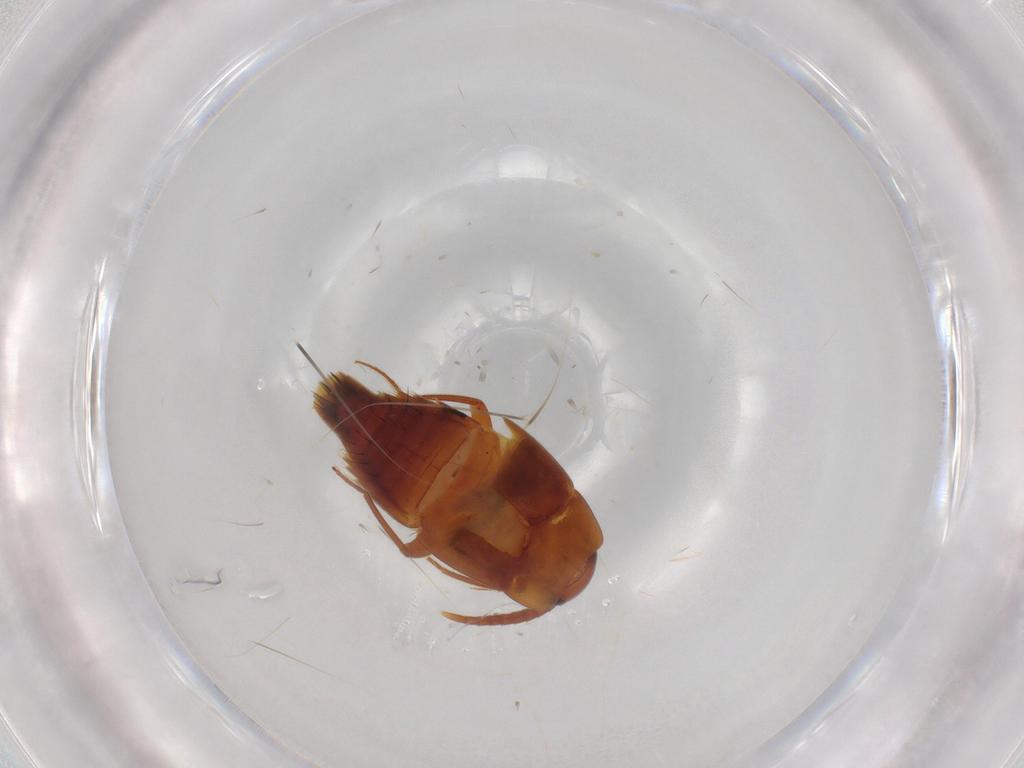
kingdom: Animalia
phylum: Arthropoda
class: Insecta
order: Coleoptera
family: Staphylinidae
